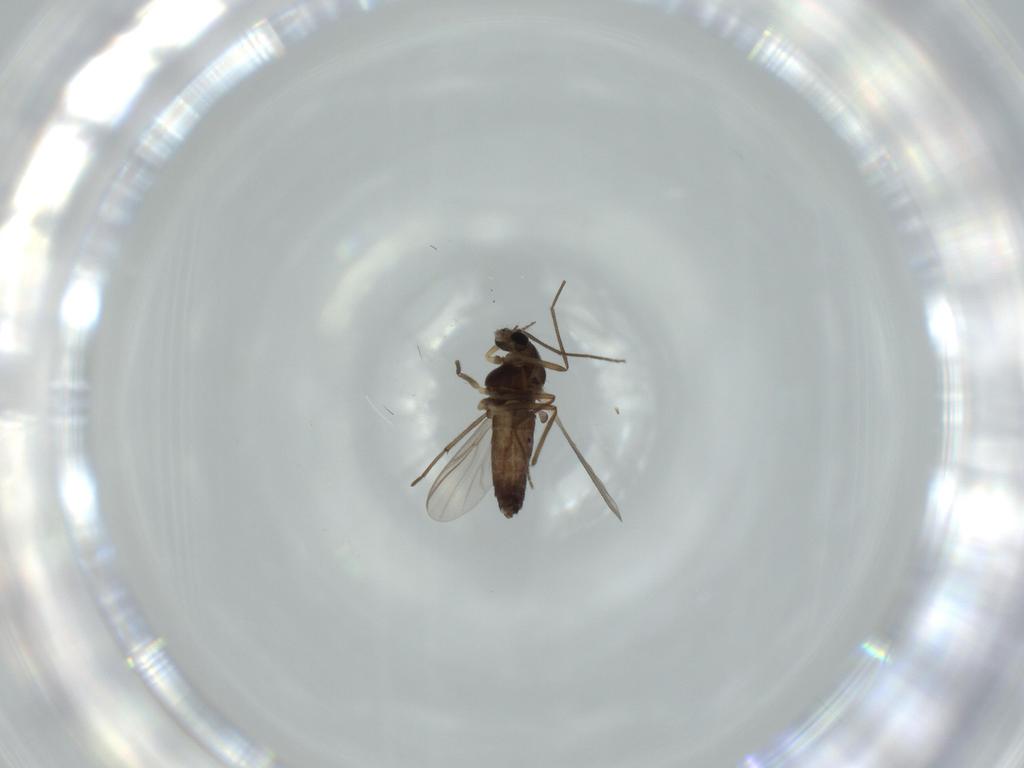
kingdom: Animalia
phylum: Arthropoda
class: Insecta
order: Diptera
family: Chironomidae
